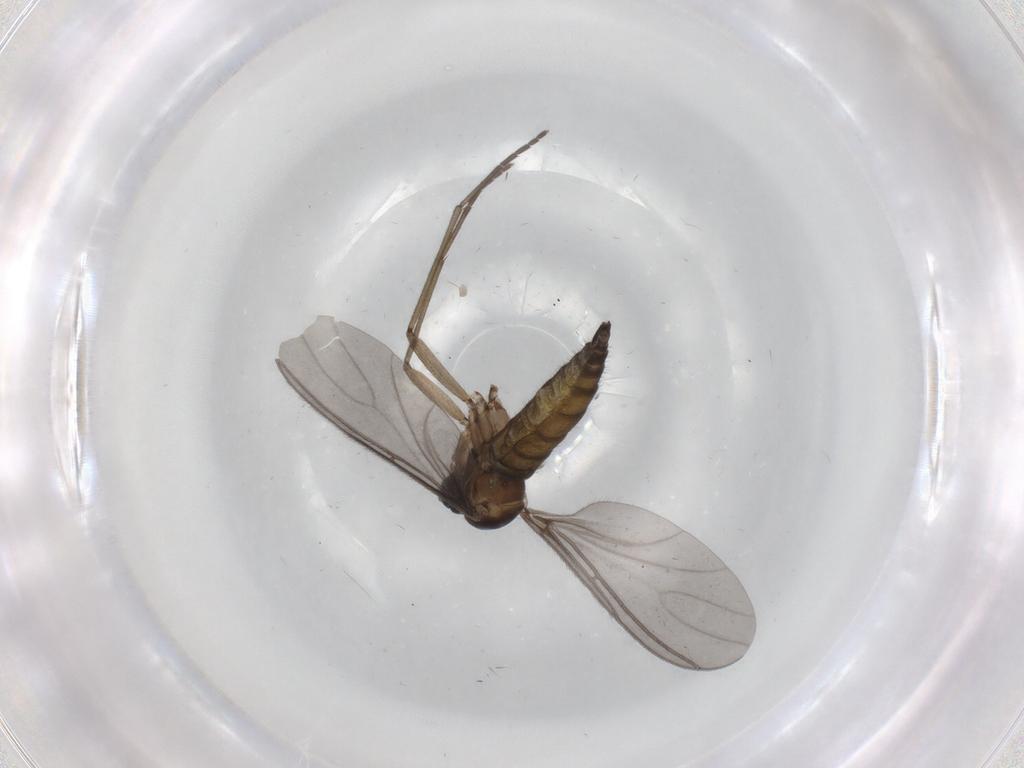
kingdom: Animalia
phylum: Arthropoda
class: Insecta
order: Diptera
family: Sciaridae
